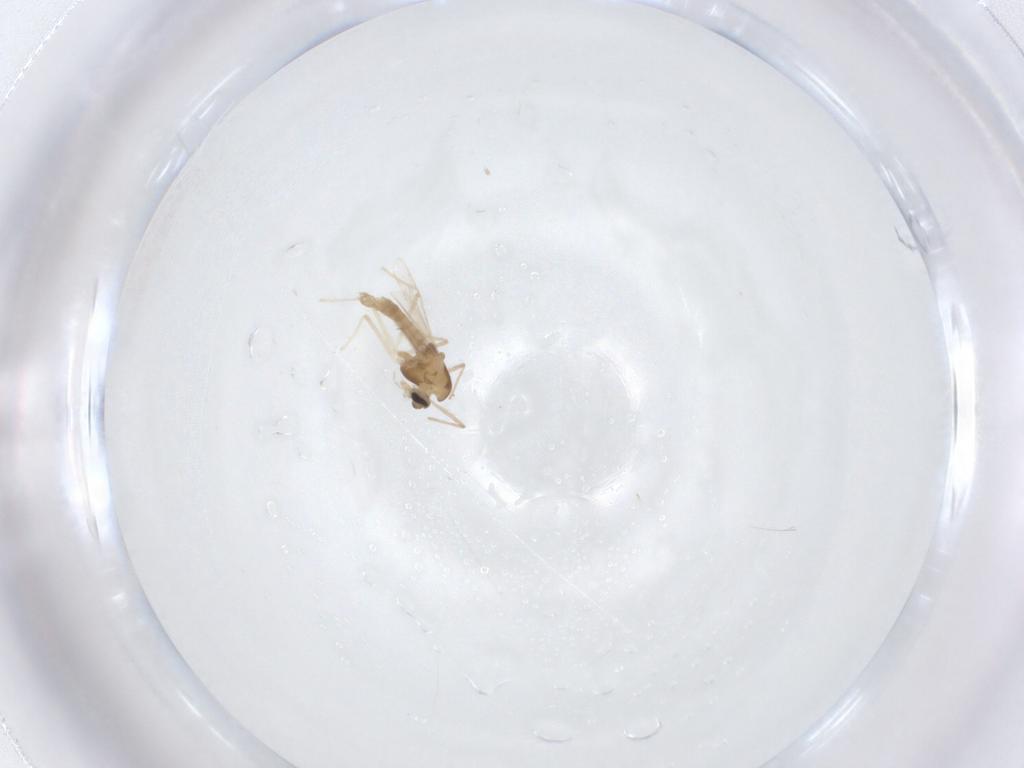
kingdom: Animalia
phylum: Arthropoda
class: Insecta
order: Diptera
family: Chironomidae
